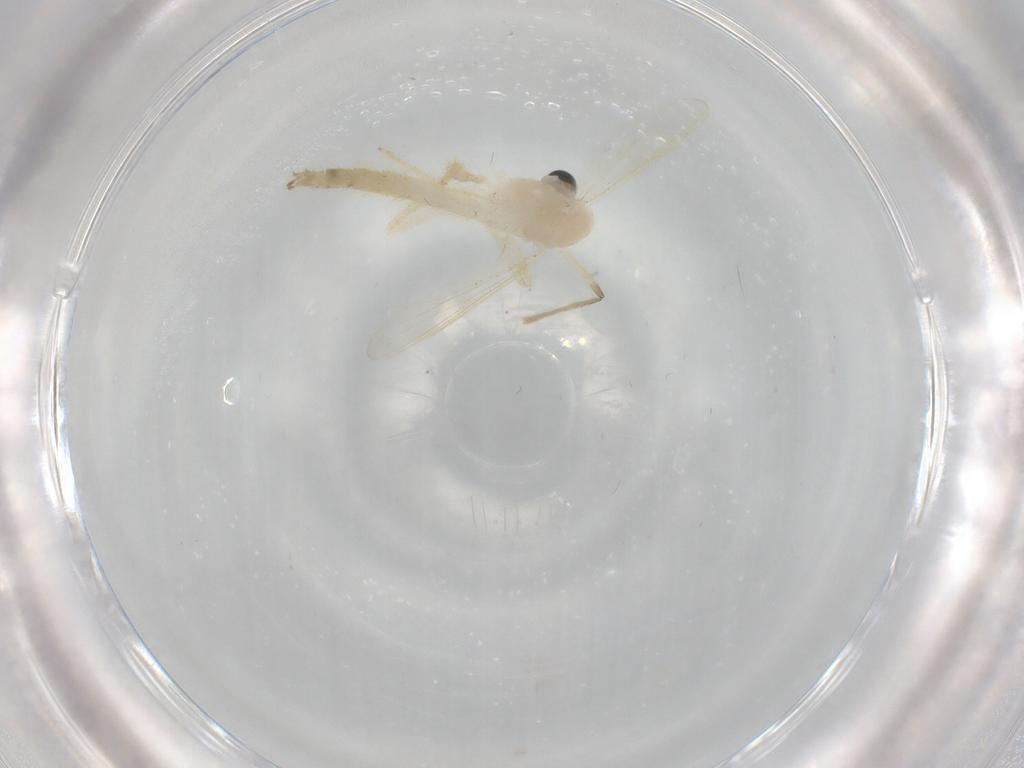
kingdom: Animalia
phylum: Arthropoda
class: Insecta
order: Diptera
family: Chironomidae
